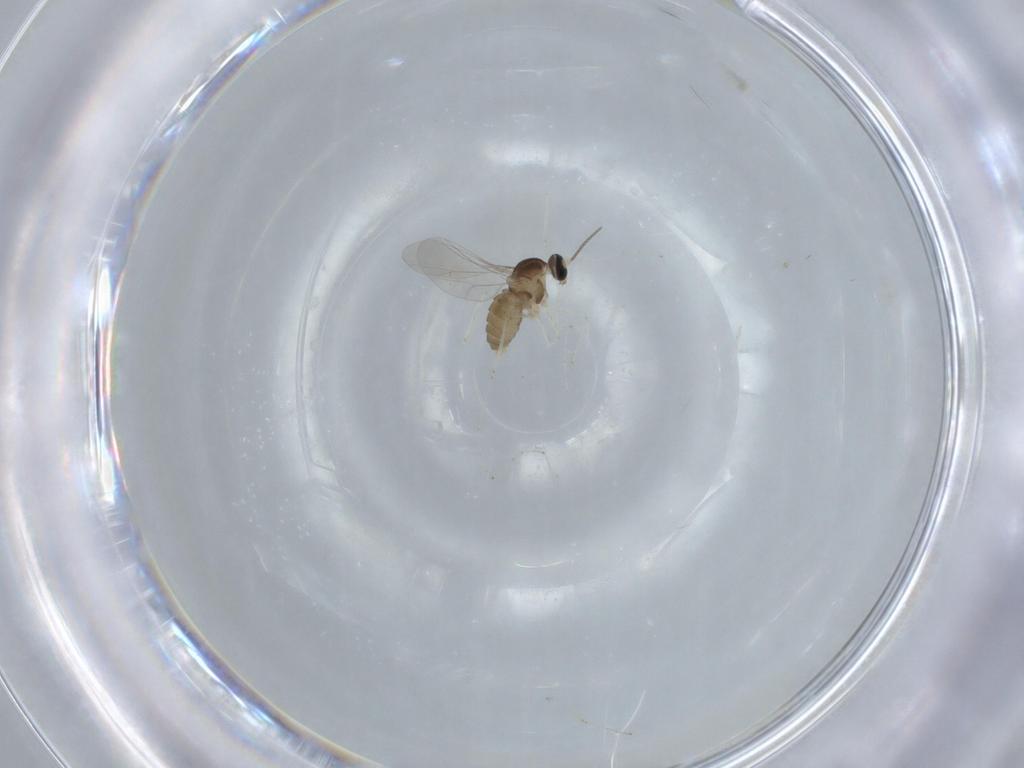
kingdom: Animalia
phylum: Arthropoda
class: Insecta
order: Diptera
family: Cecidomyiidae
